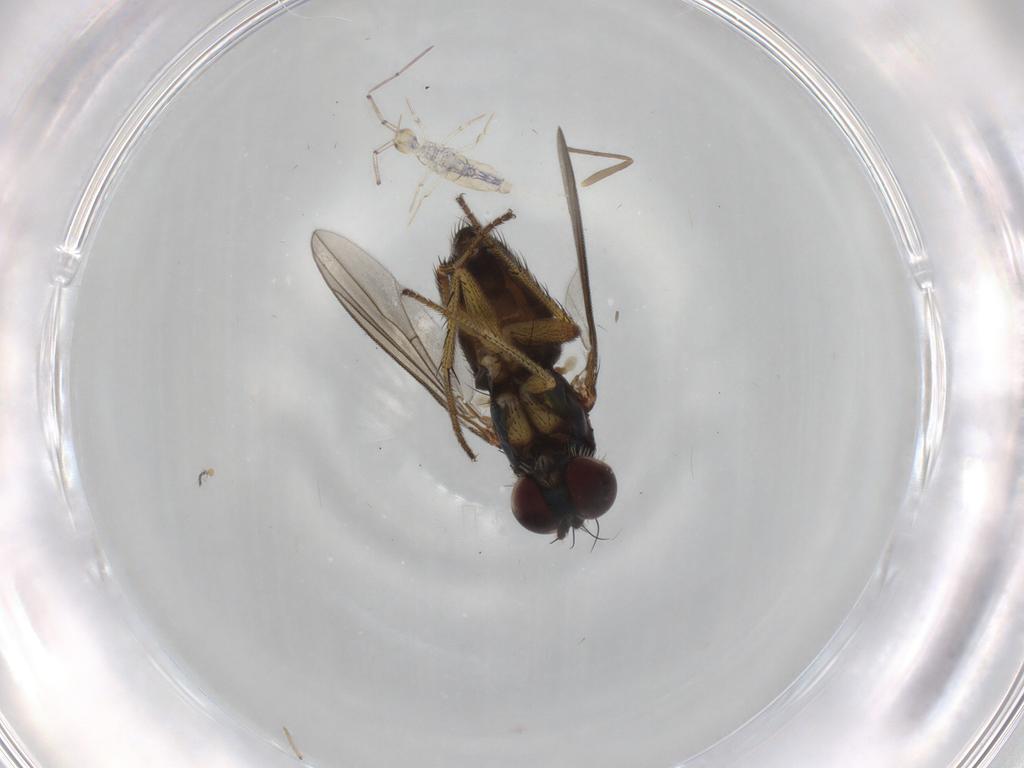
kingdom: Animalia
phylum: Arthropoda
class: Insecta
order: Diptera
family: Dolichopodidae
